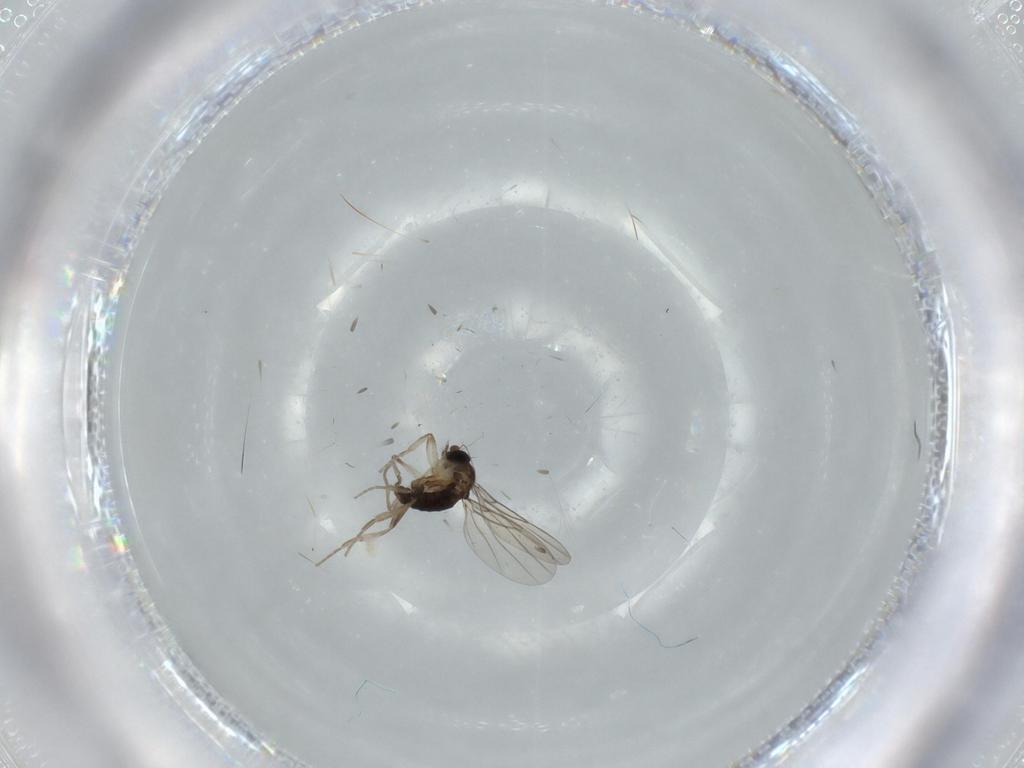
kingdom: Animalia
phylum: Arthropoda
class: Insecta
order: Diptera
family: Phoridae
